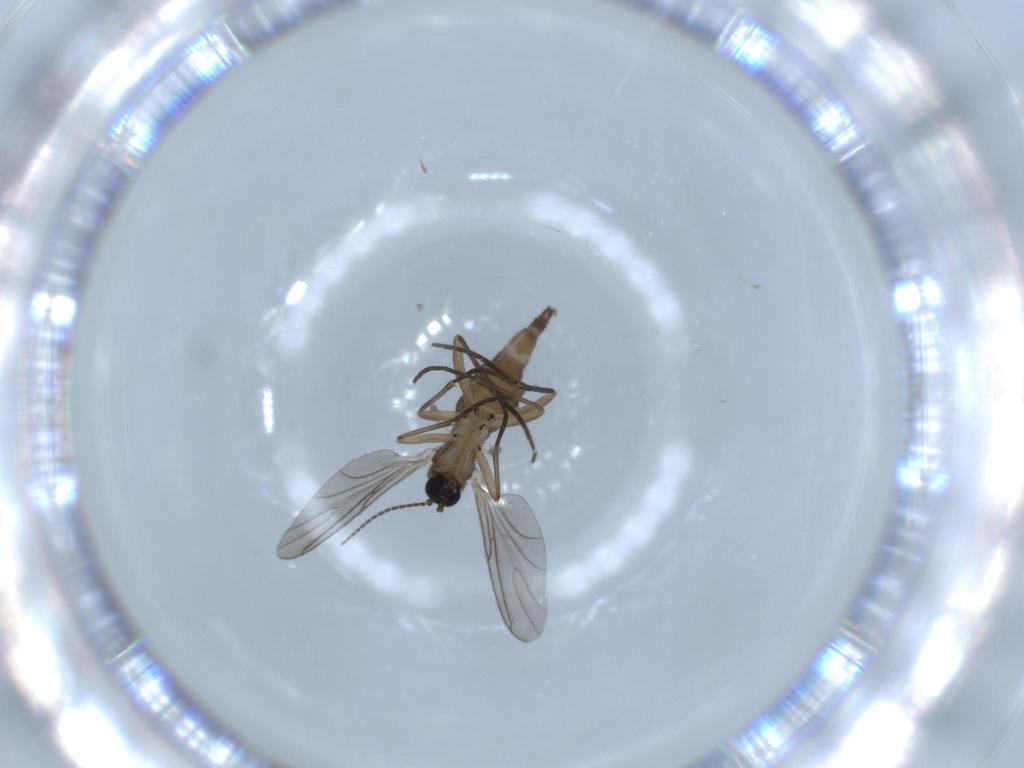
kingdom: Animalia
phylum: Arthropoda
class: Insecta
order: Diptera
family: Sciaridae
